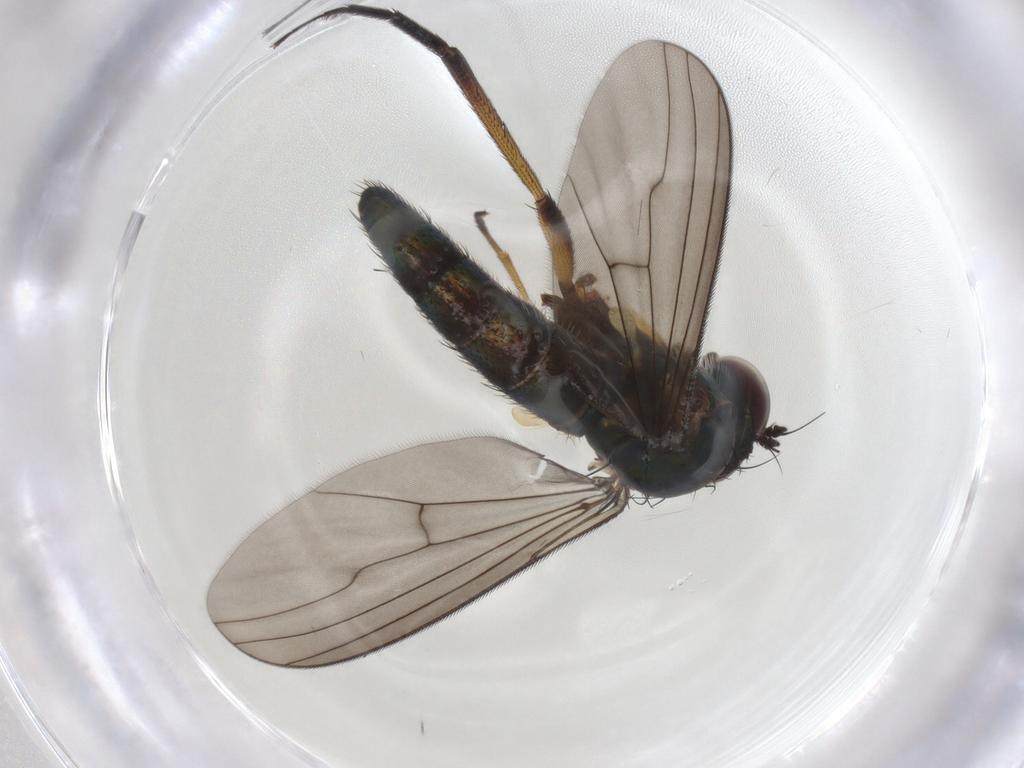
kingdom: Animalia
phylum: Arthropoda
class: Insecta
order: Diptera
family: Dolichopodidae
